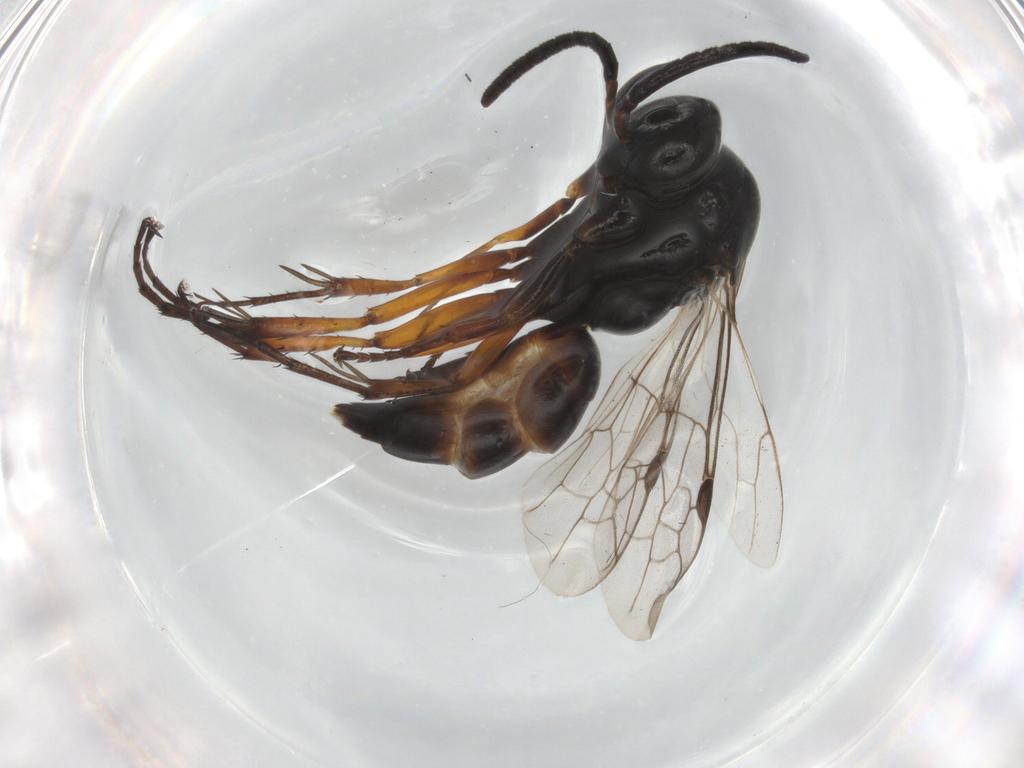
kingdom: Animalia
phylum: Arthropoda
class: Insecta
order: Hymenoptera
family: Pompilidae
